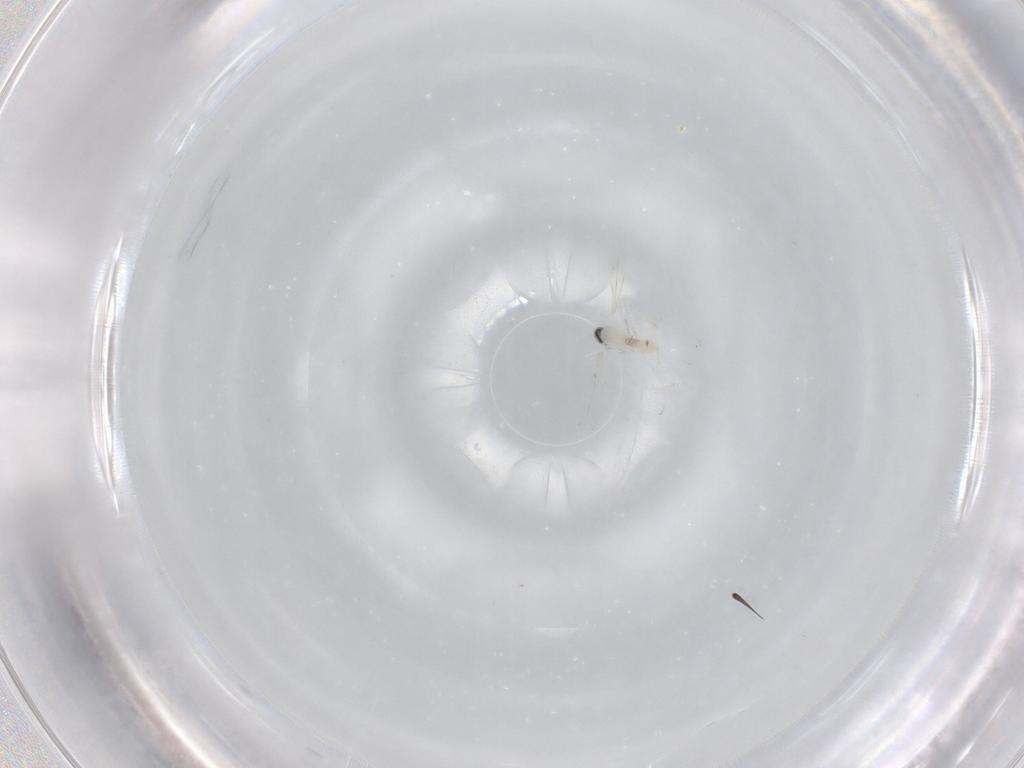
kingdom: Animalia
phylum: Arthropoda
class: Insecta
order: Diptera
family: Cecidomyiidae
